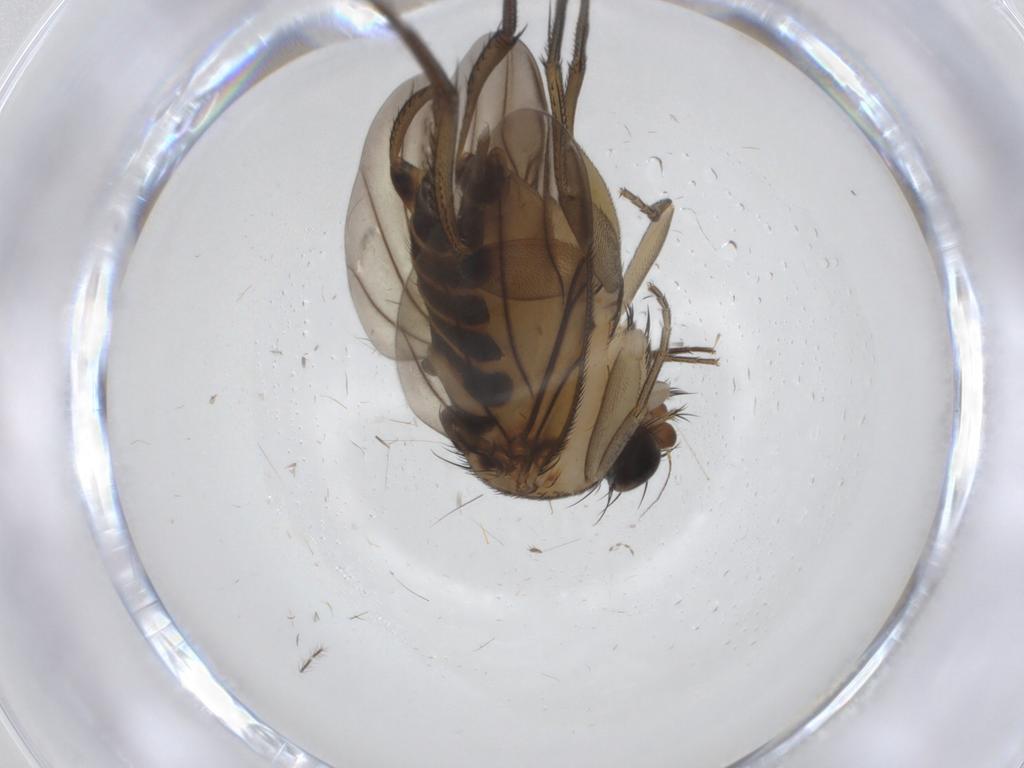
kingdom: Animalia
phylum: Arthropoda
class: Insecta
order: Diptera
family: Phoridae
